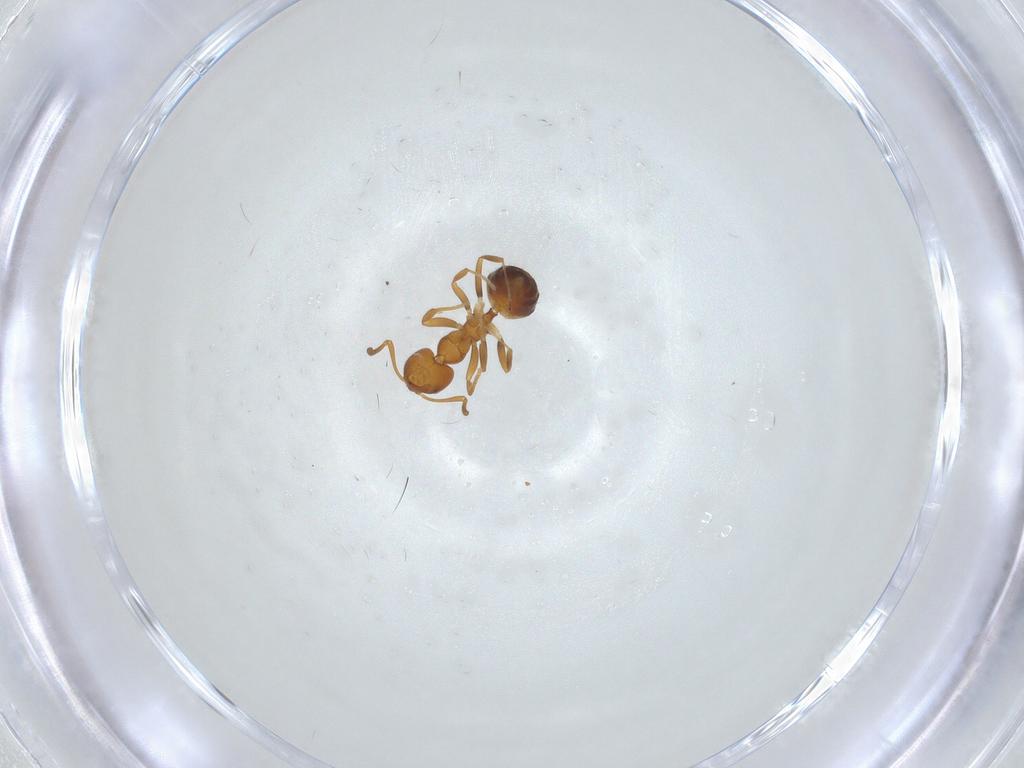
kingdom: Animalia
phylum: Arthropoda
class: Insecta
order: Hymenoptera
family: Formicidae
